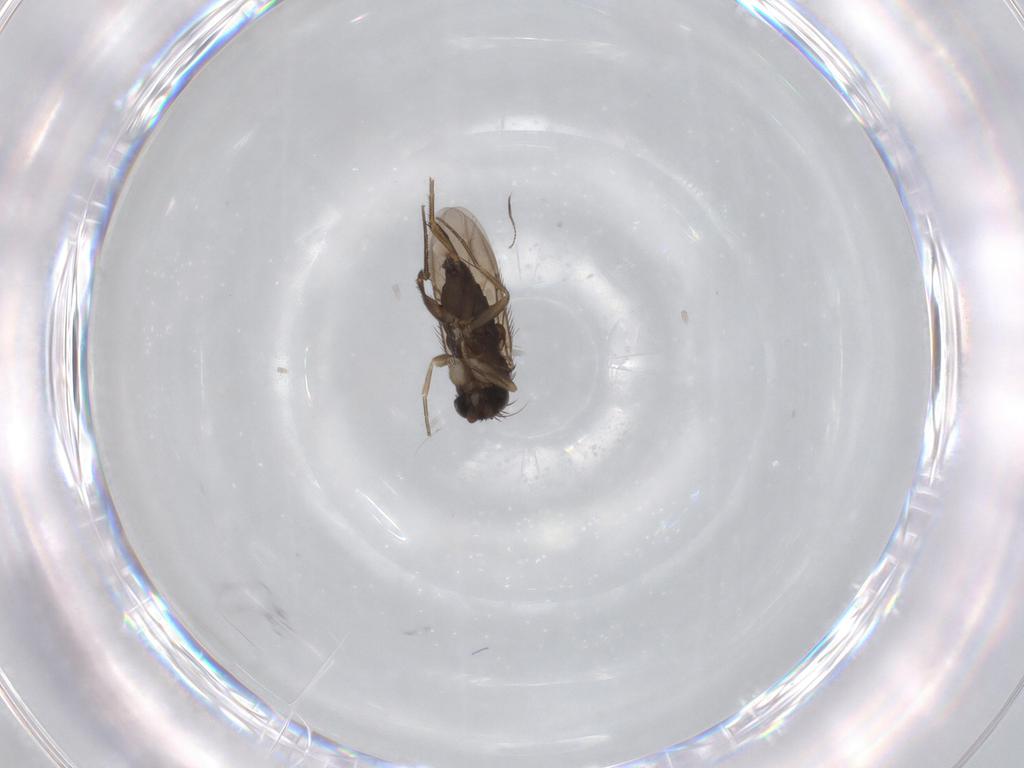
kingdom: Animalia
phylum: Arthropoda
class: Insecta
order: Diptera
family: Phoridae
